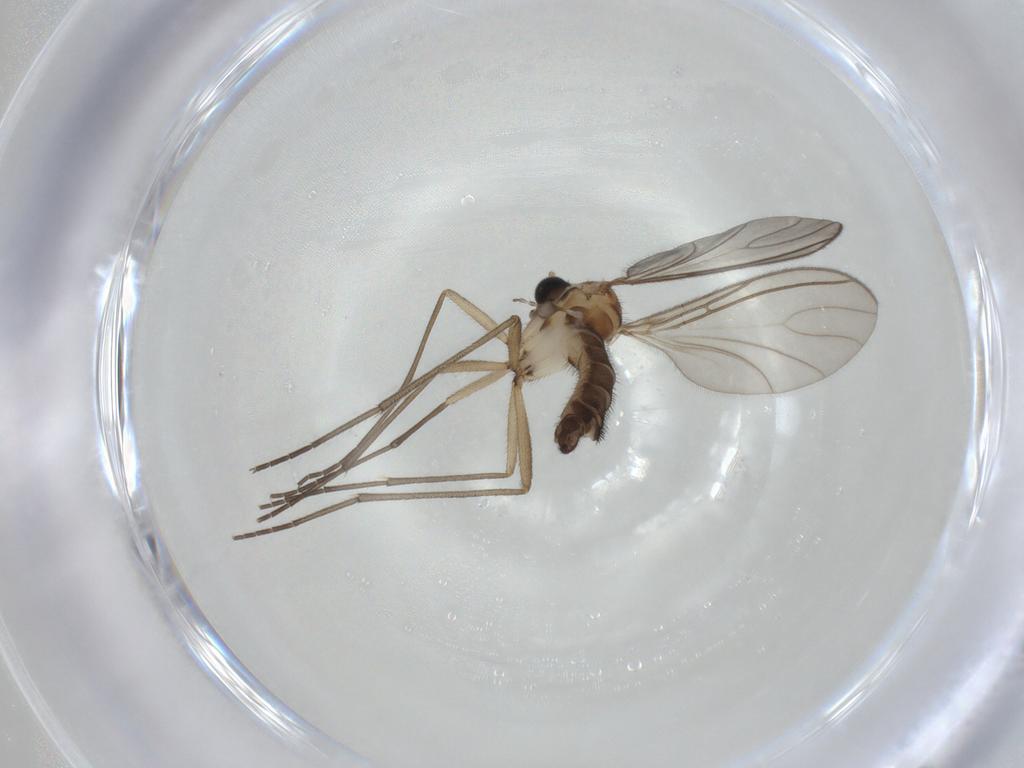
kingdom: Animalia
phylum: Arthropoda
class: Insecta
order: Diptera
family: Sciaridae
